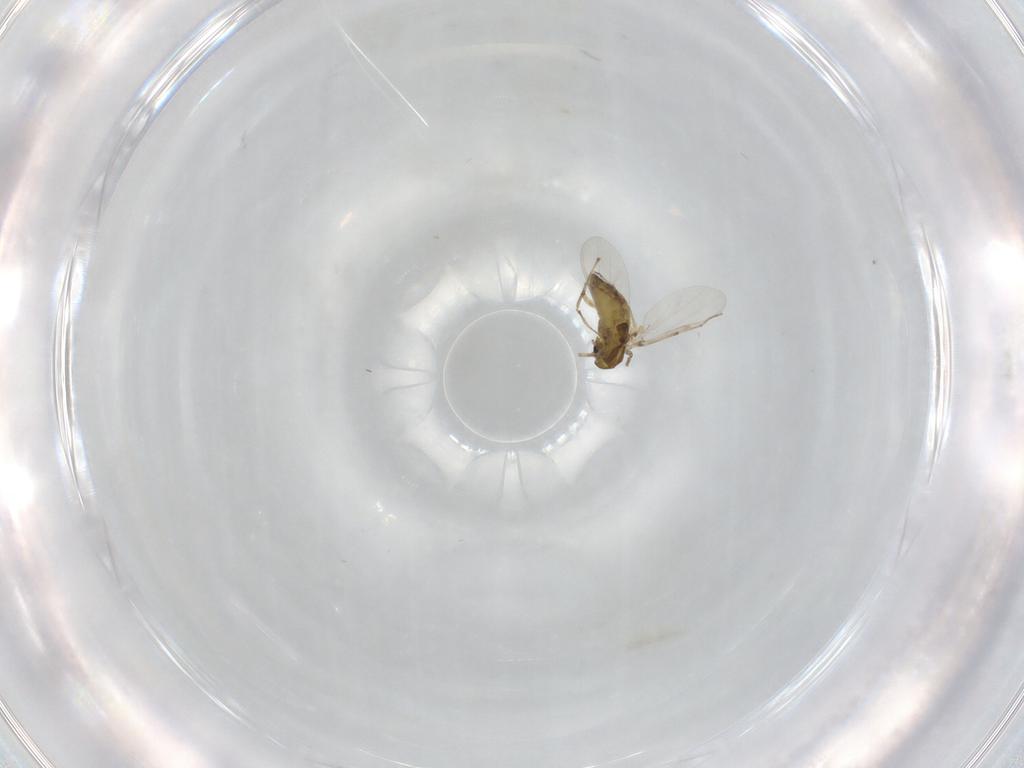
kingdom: Animalia
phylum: Arthropoda
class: Insecta
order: Diptera
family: Chironomidae
